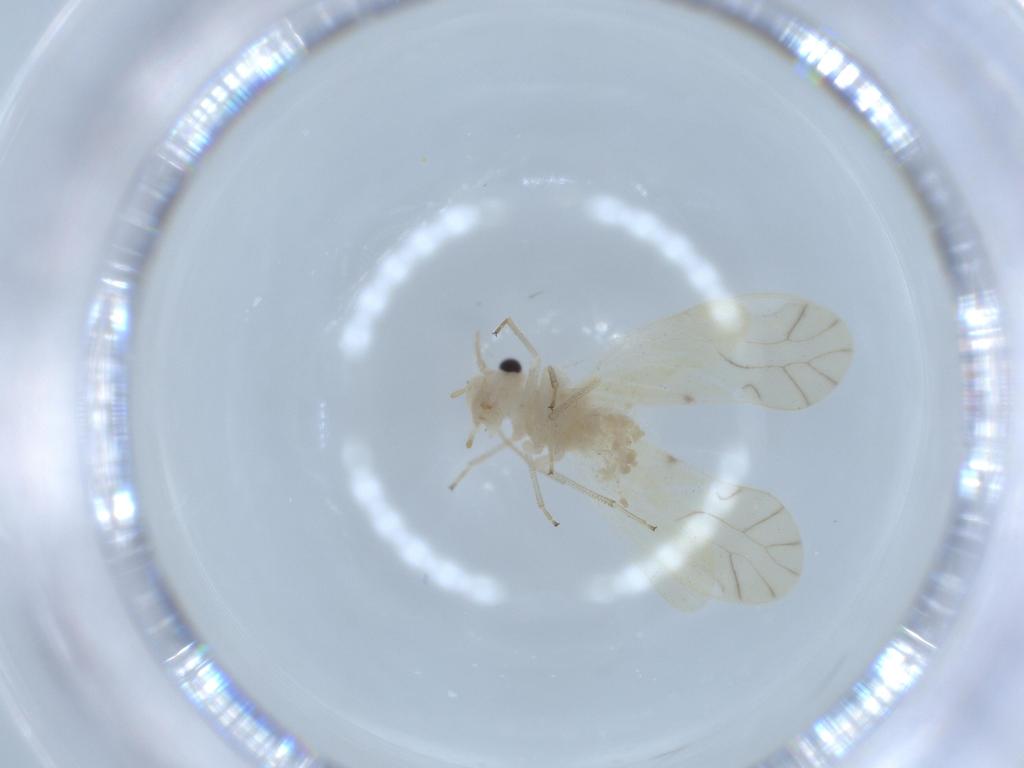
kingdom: Animalia
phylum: Arthropoda
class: Insecta
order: Psocodea
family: Caeciliusidae
